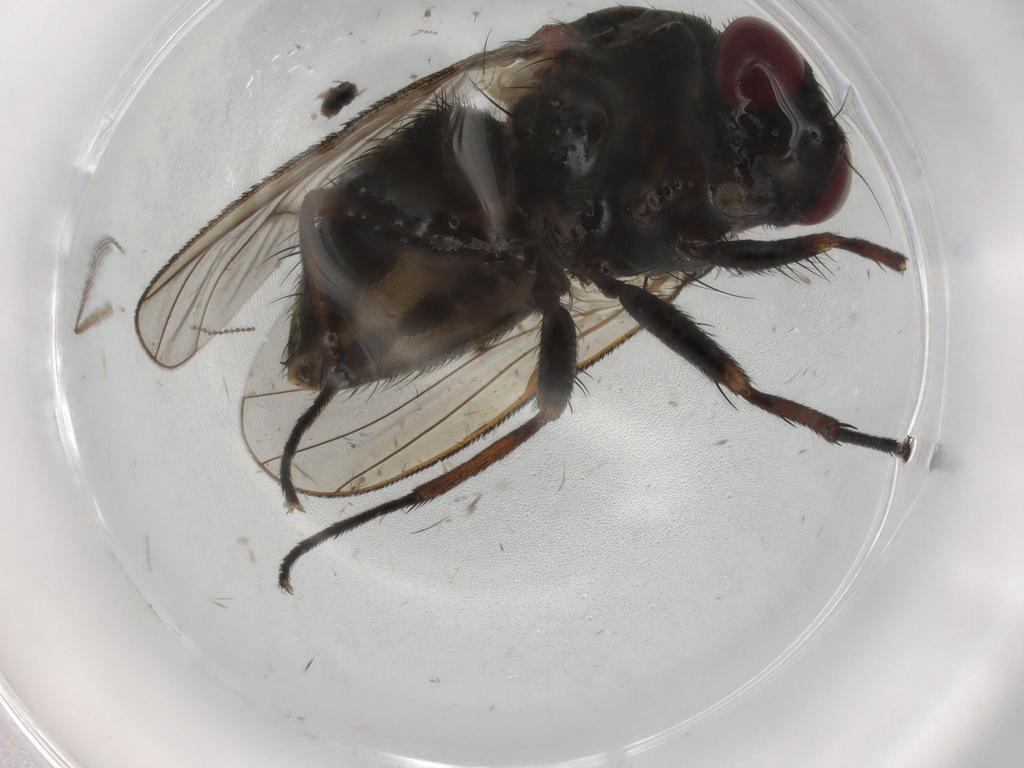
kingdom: Animalia
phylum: Arthropoda
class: Insecta
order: Diptera
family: Muscidae
